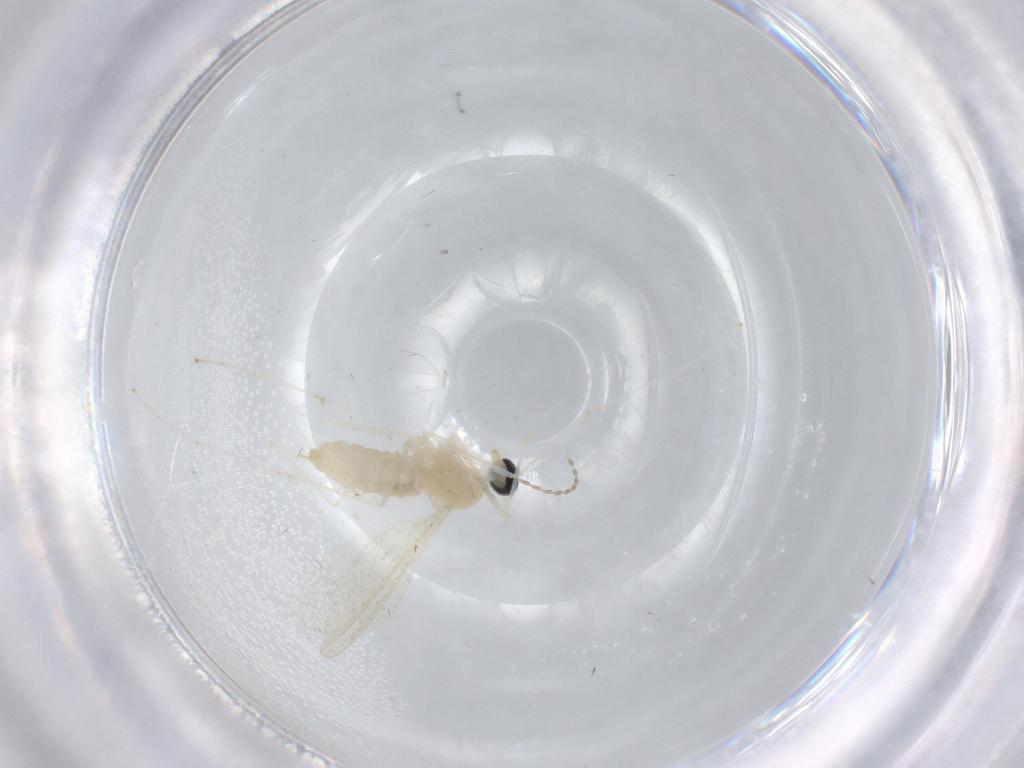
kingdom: Animalia
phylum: Arthropoda
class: Insecta
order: Diptera
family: Cecidomyiidae
